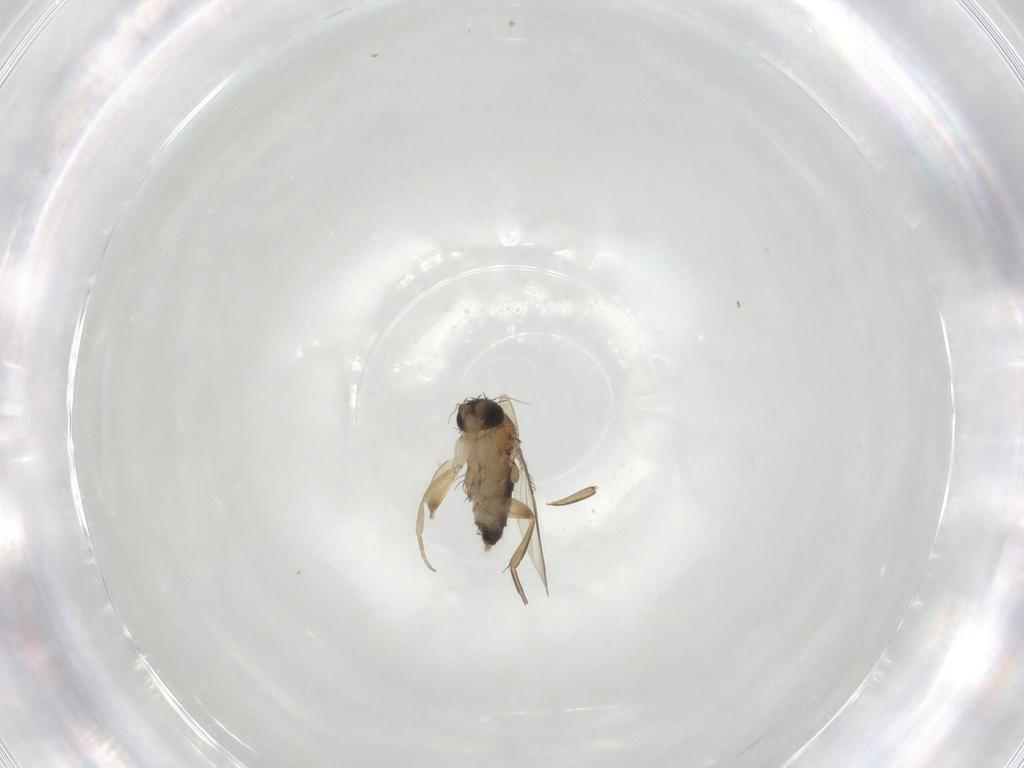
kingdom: Animalia
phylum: Arthropoda
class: Insecta
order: Diptera
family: Phoridae
